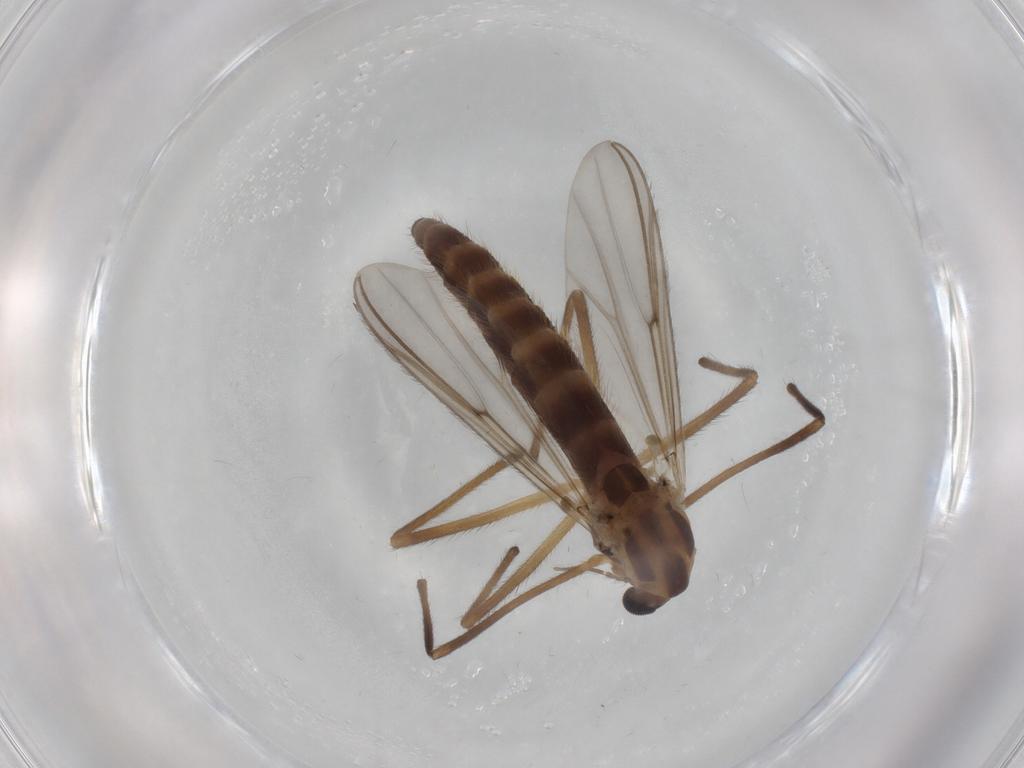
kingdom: Animalia
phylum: Arthropoda
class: Insecta
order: Diptera
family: Chironomidae
